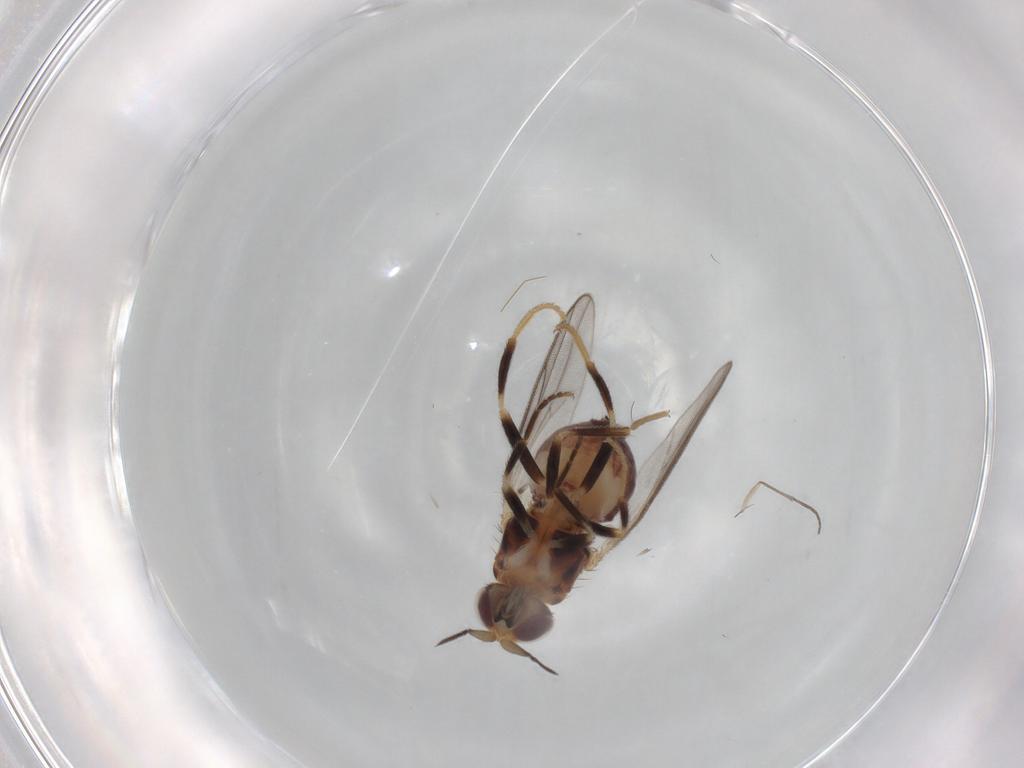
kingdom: Animalia
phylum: Arthropoda
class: Insecta
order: Diptera
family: Chloropidae
